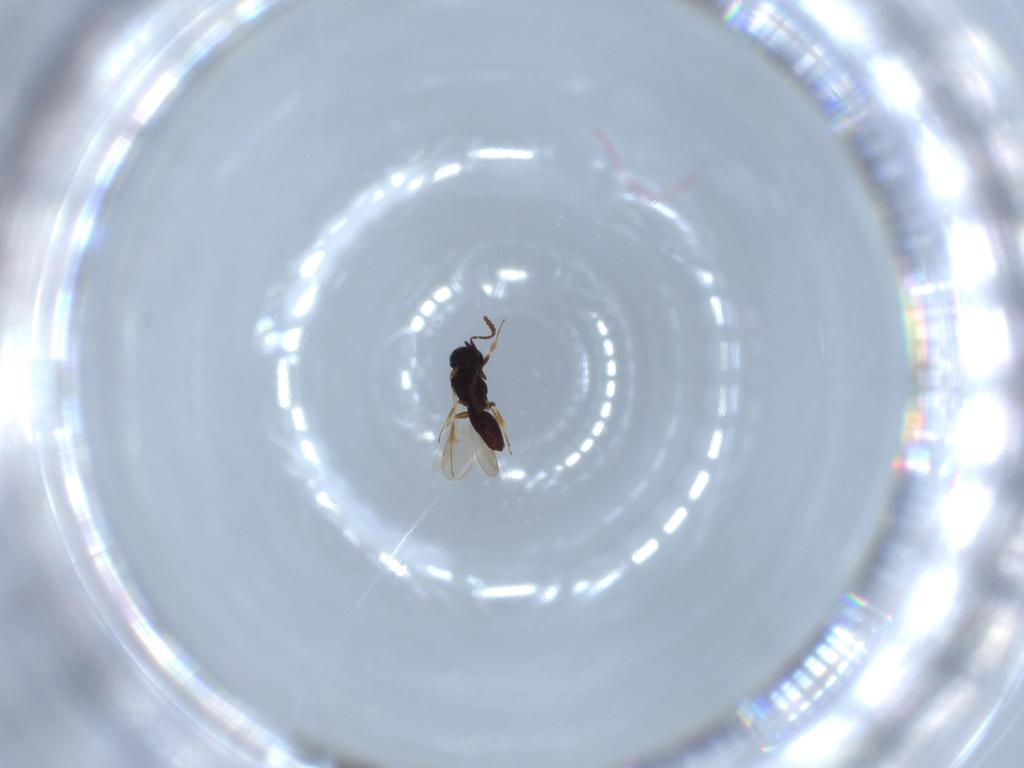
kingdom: Animalia
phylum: Arthropoda
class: Insecta
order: Hymenoptera
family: Scelionidae
